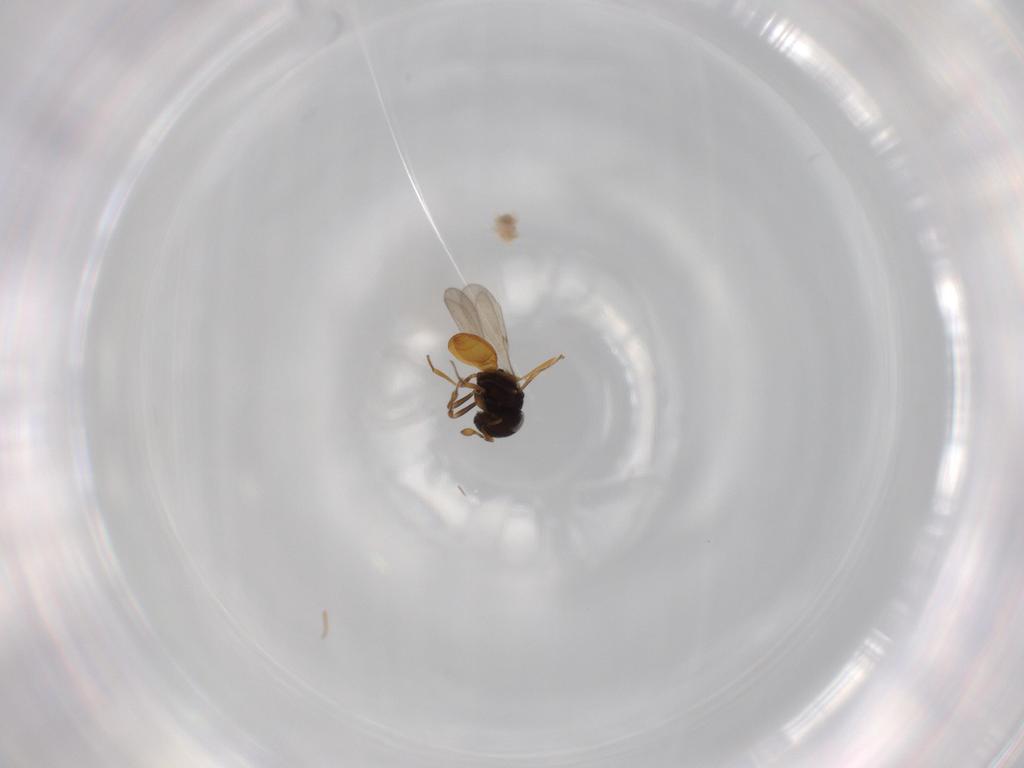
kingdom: Animalia
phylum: Arthropoda
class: Insecta
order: Hymenoptera
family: Scelionidae
